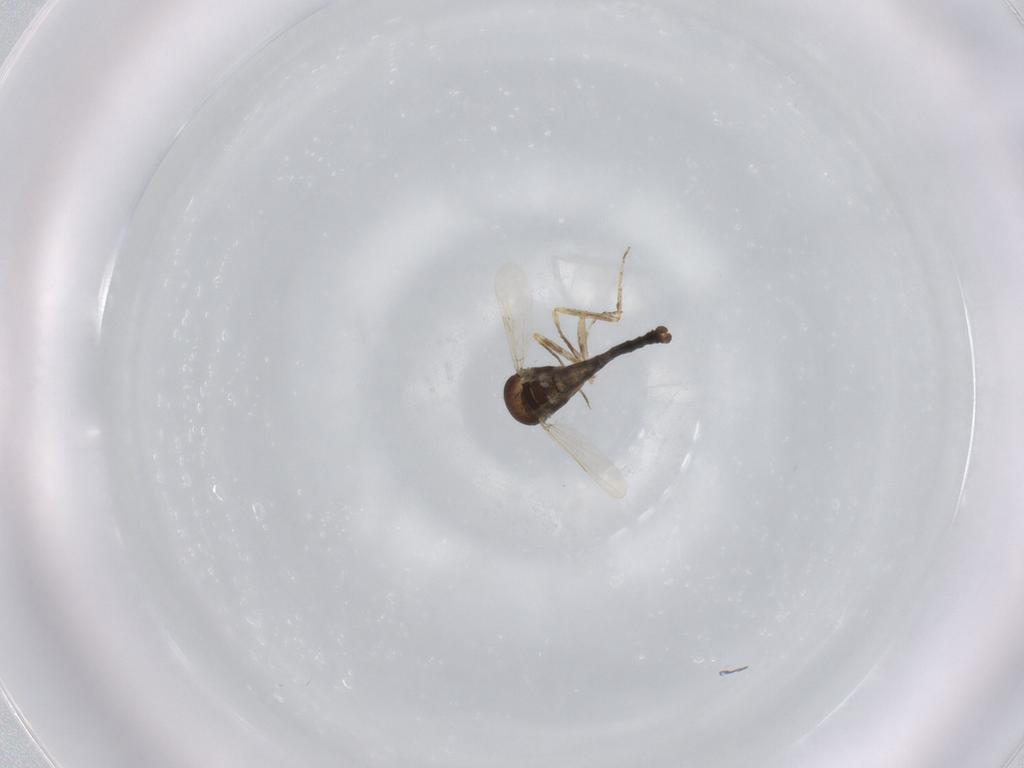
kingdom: Animalia
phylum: Arthropoda
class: Insecta
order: Diptera
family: Ceratopogonidae
